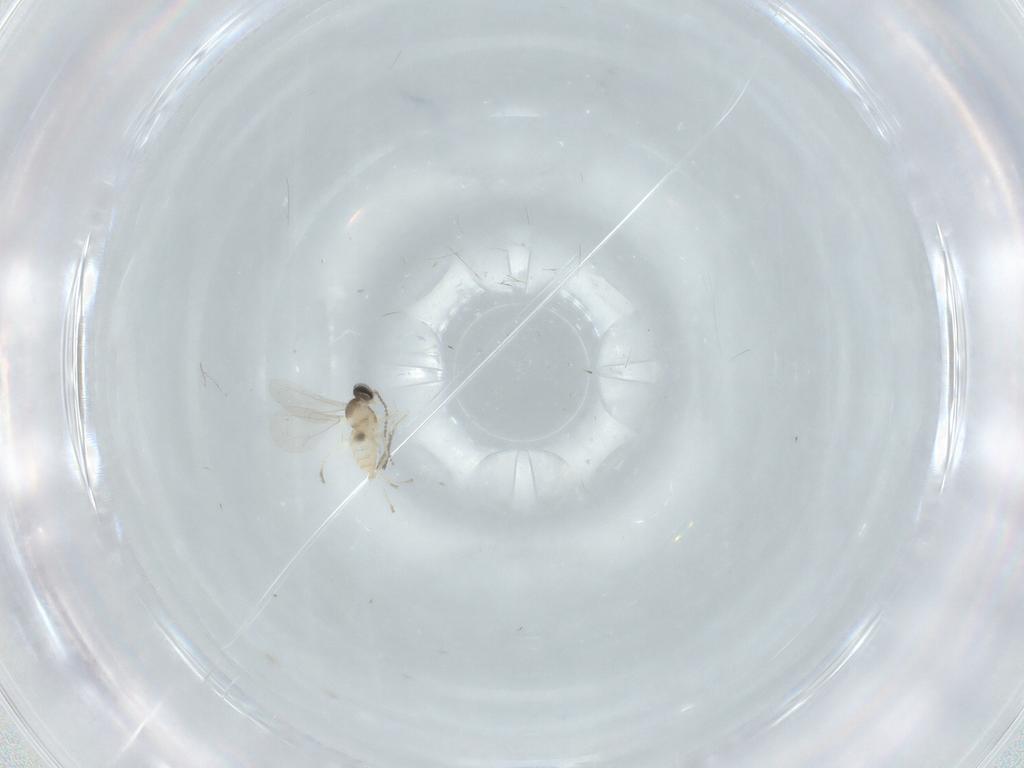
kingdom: Animalia
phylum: Arthropoda
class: Insecta
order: Diptera
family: Cecidomyiidae
